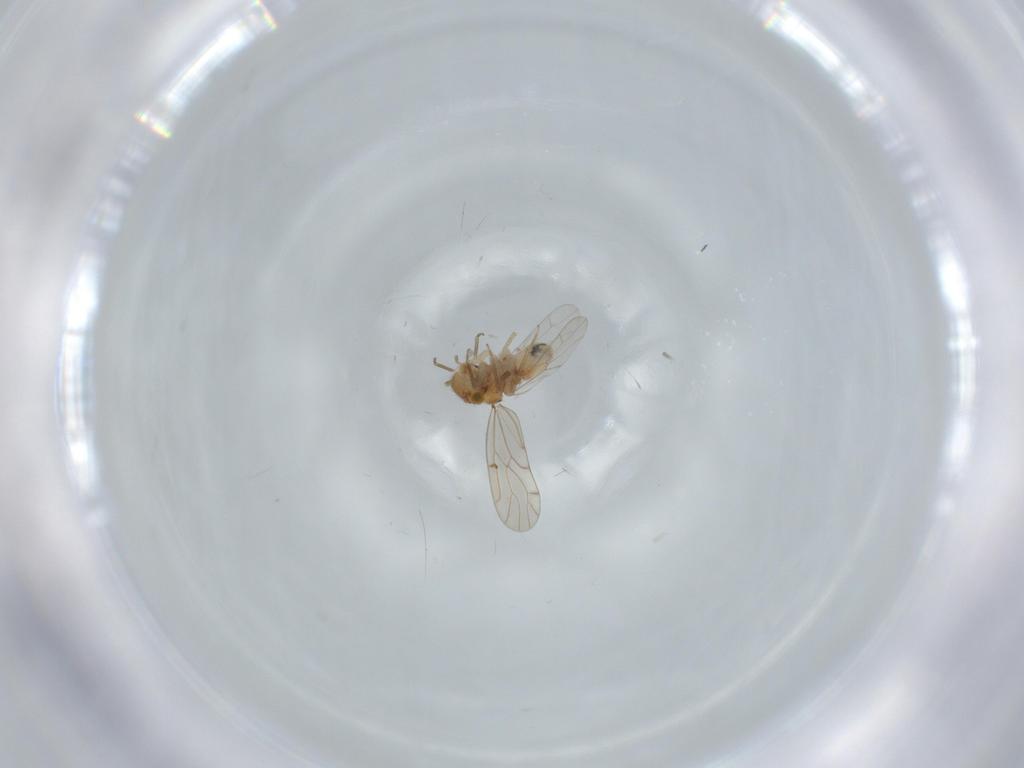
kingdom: Animalia
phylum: Arthropoda
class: Insecta
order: Psocodea
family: Ectopsocidae
